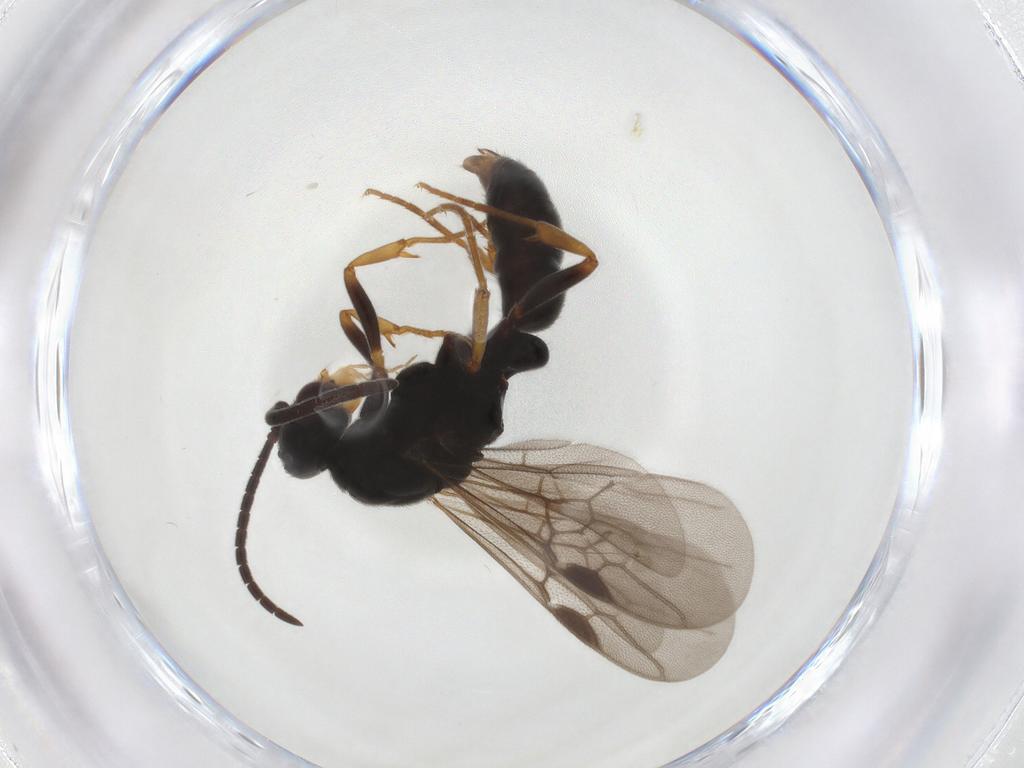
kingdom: Animalia
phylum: Arthropoda
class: Insecta
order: Hymenoptera
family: Formicidae
